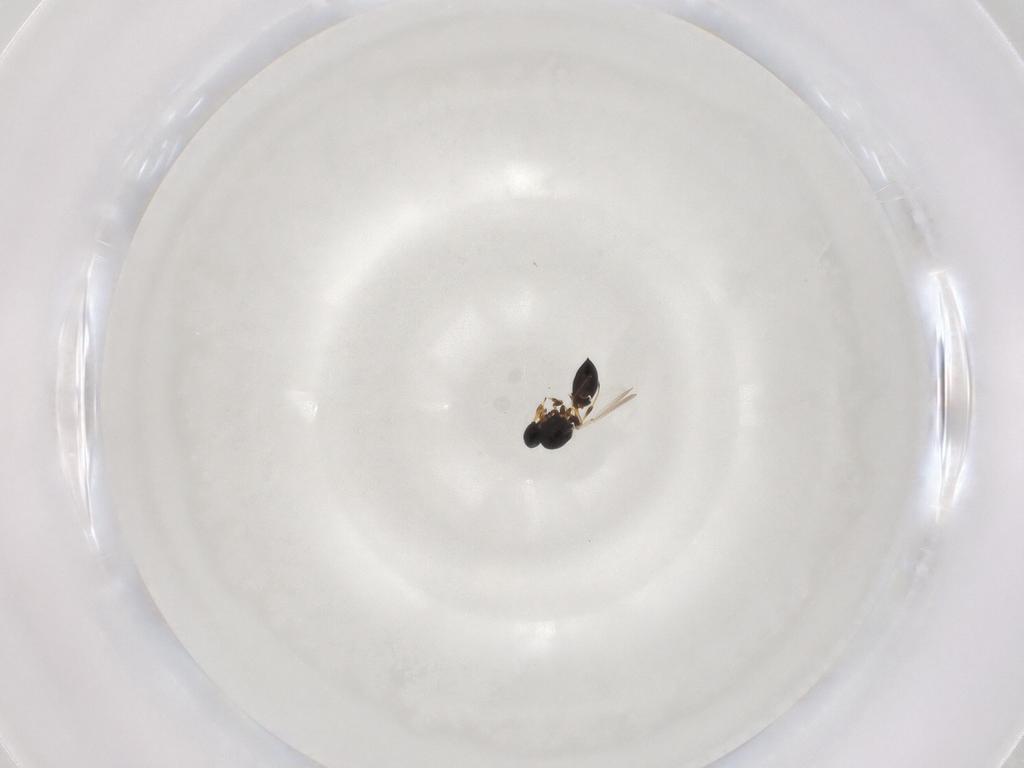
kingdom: Animalia
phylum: Arthropoda
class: Insecta
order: Hymenoptera
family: Platygastridae
